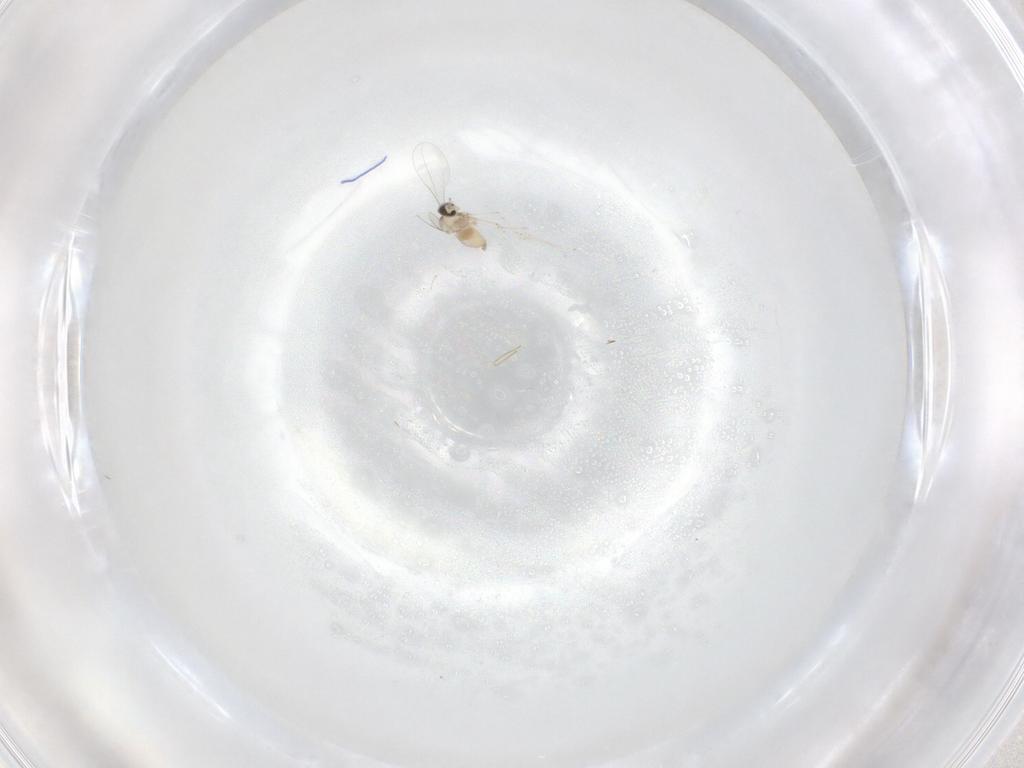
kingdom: Animalia
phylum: Arthropoda
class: Insecta
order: Diptera
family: Cecidomyiidae
